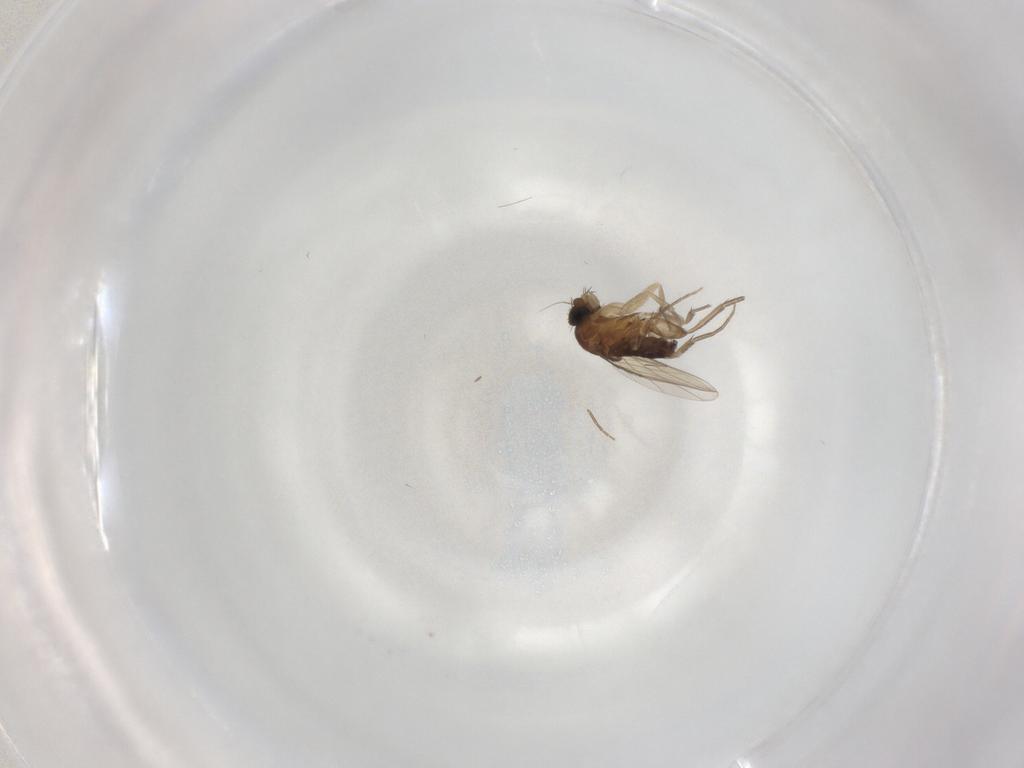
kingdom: Animalia
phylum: Arthropoda
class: Insecta
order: Diptera
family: Phoridae
